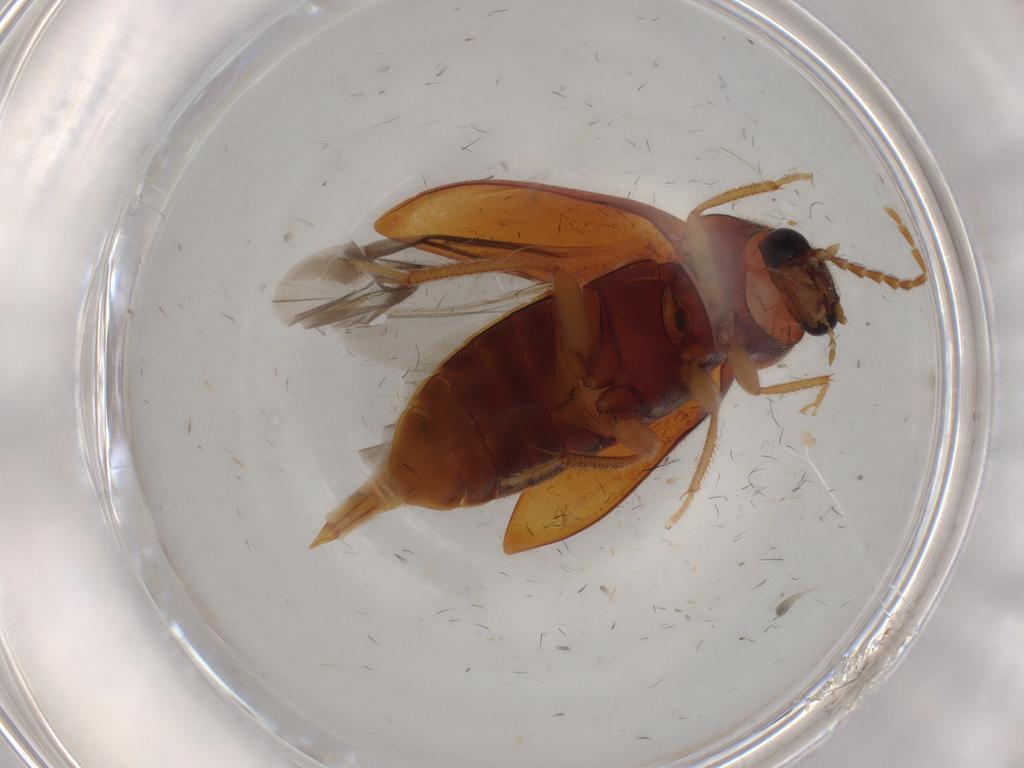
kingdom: Animalia
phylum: Arthropoda
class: Insecta
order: Coleoptera
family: Ptilodactylidae
